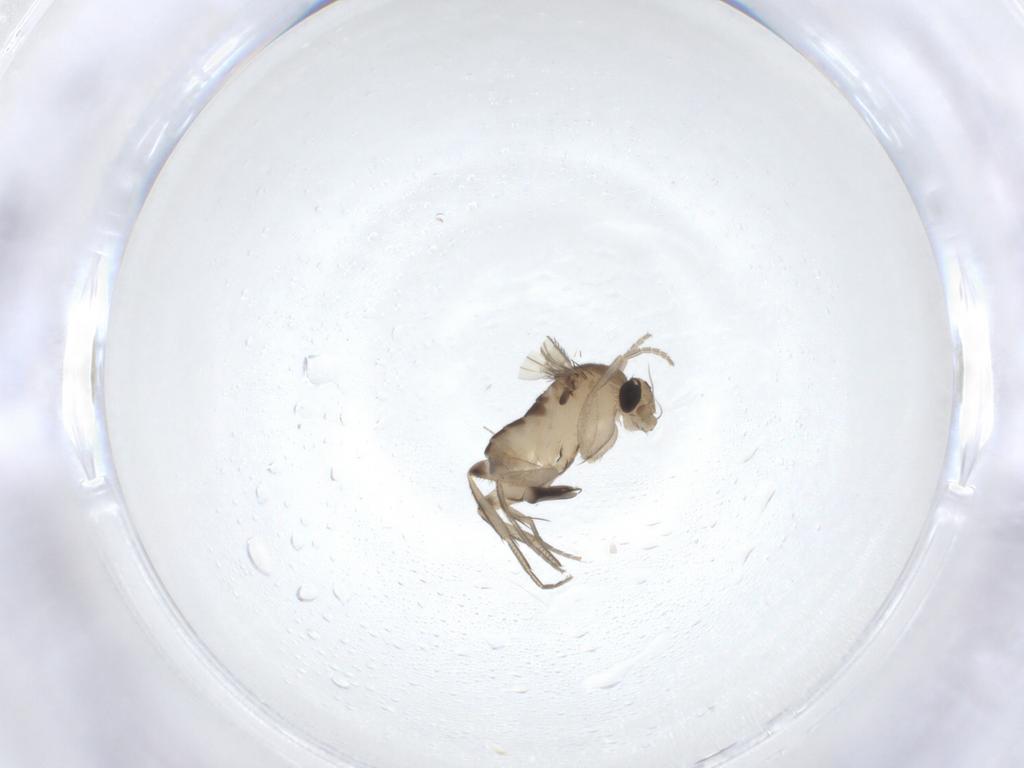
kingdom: Animalia
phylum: Arthropoda
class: Insecta
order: Diptera
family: Phoridae
